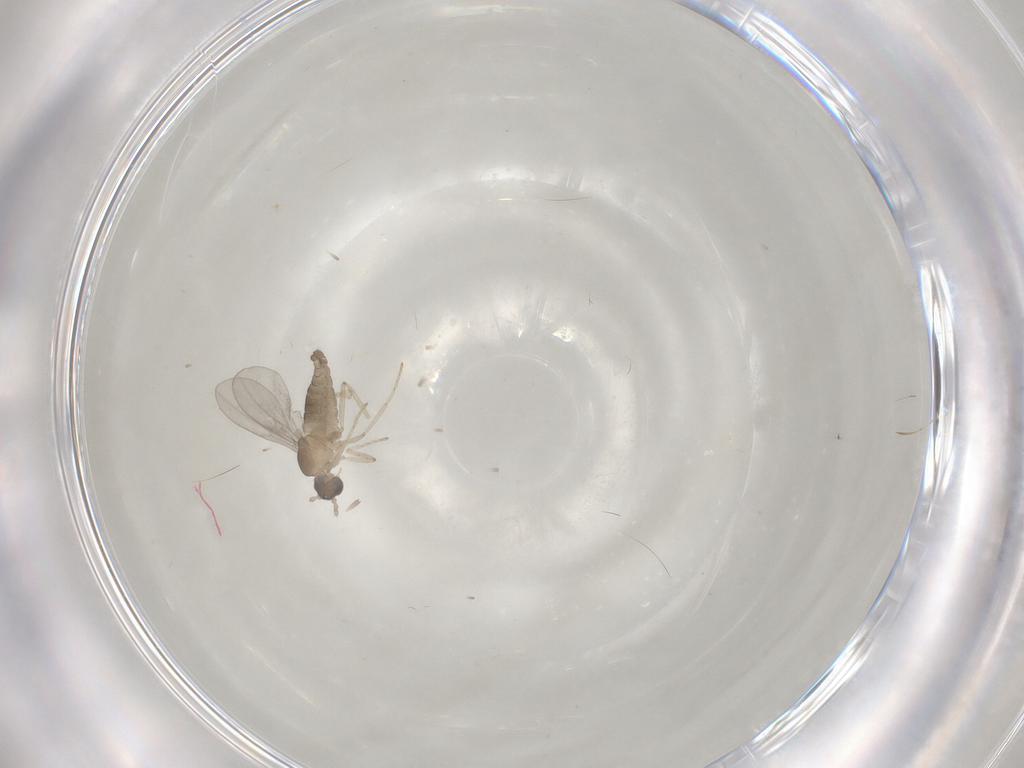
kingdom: Animalia
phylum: Arthropoda
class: Insecta
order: Diptera
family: Cecidomyiidae
